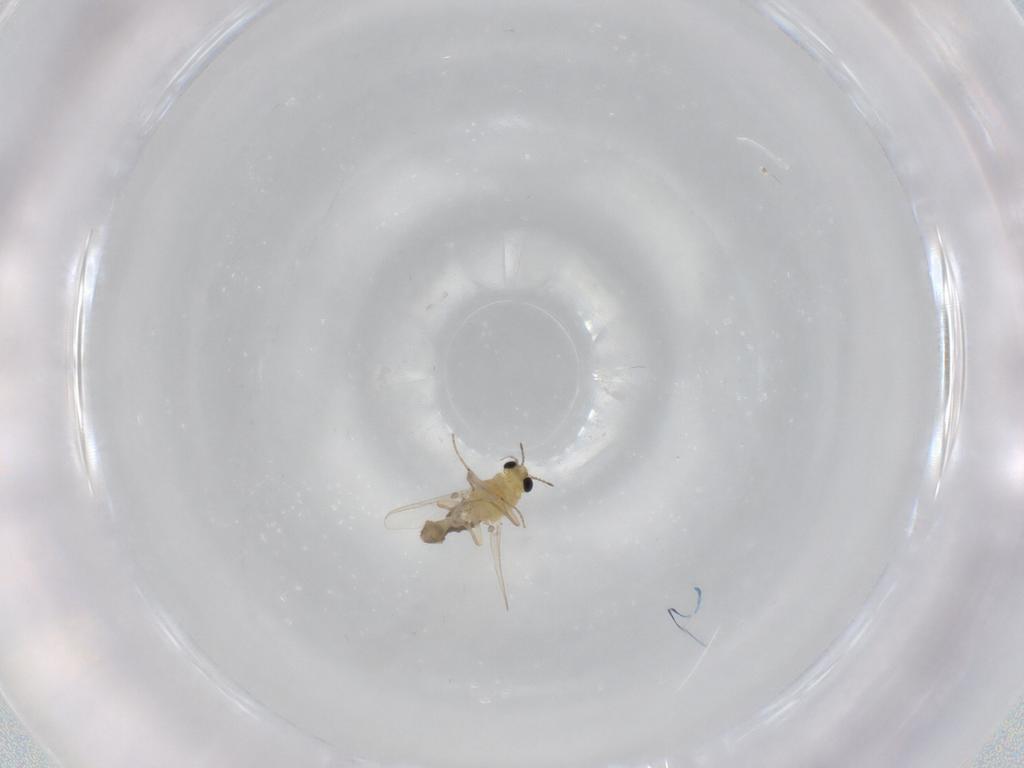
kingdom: Animalia
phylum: Arthropoda
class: Insecta
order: Diptera
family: Chironomidae
